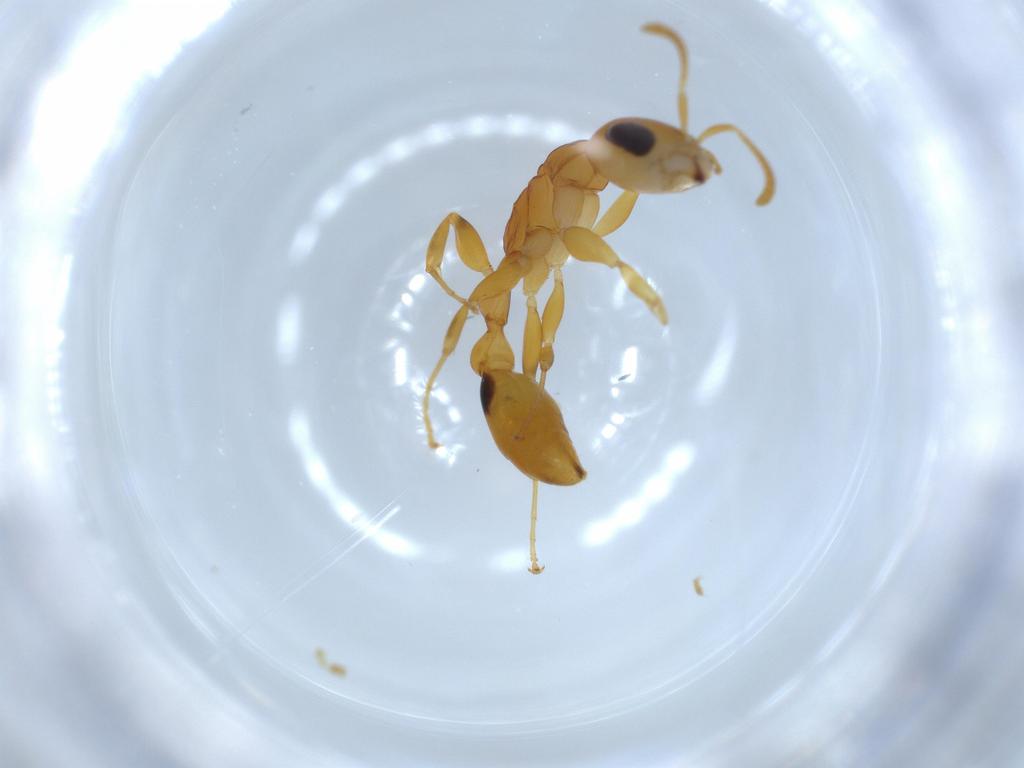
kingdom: Animalia
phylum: Arthropoda
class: Insecta
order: Hymenoptera
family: Formicidae
